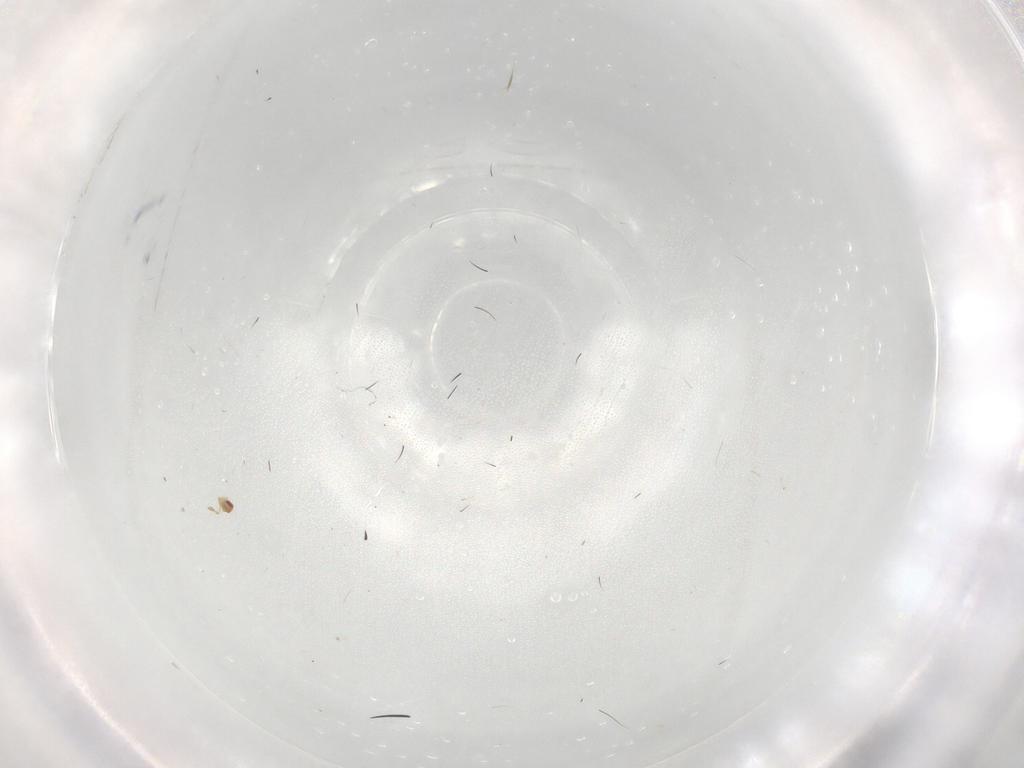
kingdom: Animalia
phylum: Arthropoda
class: Insecta
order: Hymenoptera
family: Trichogrammatidae
